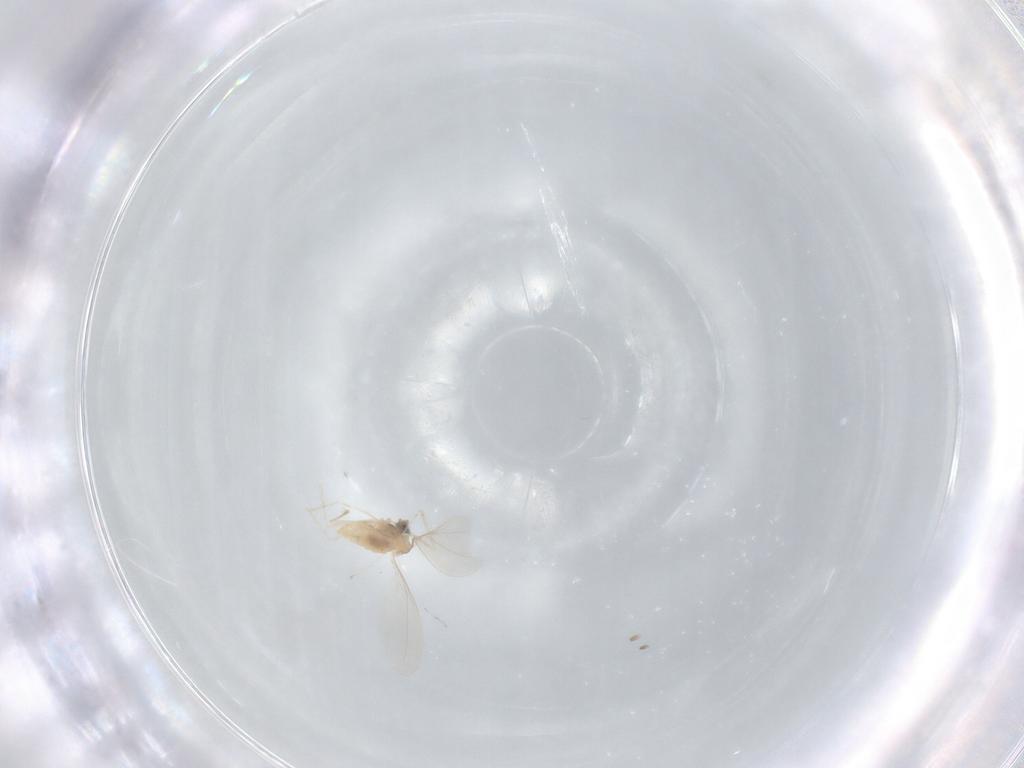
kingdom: Animalia
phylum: Arthropoda
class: Insecta
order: Diptera
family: Cecidomyiidae
